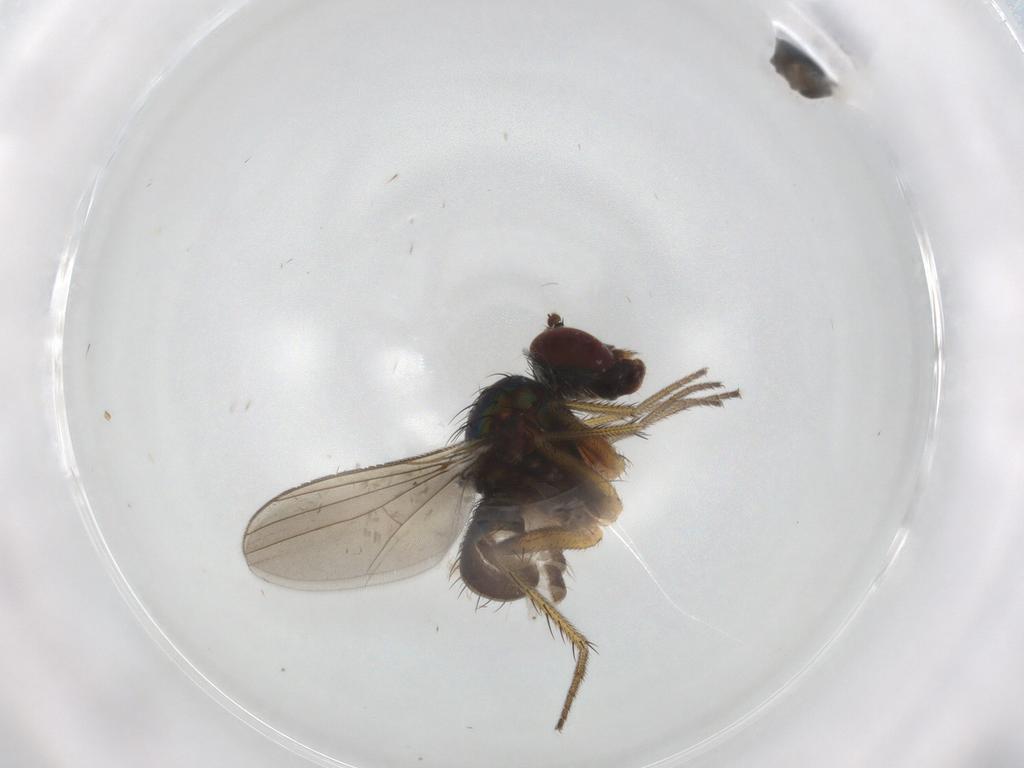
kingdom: Animalia
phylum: Arthropoda
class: Insecta
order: Diptera
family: Dolichopodidae
